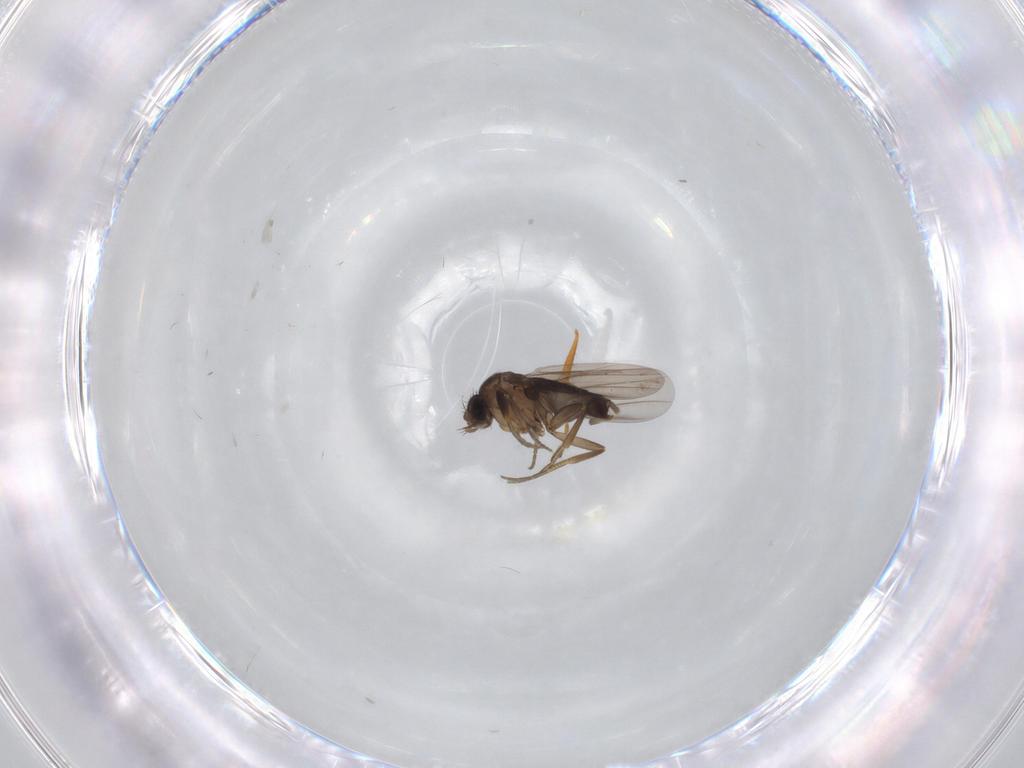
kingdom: Animalia
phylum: Arthropoda
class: Insecta
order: Diptera
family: Phoridae
